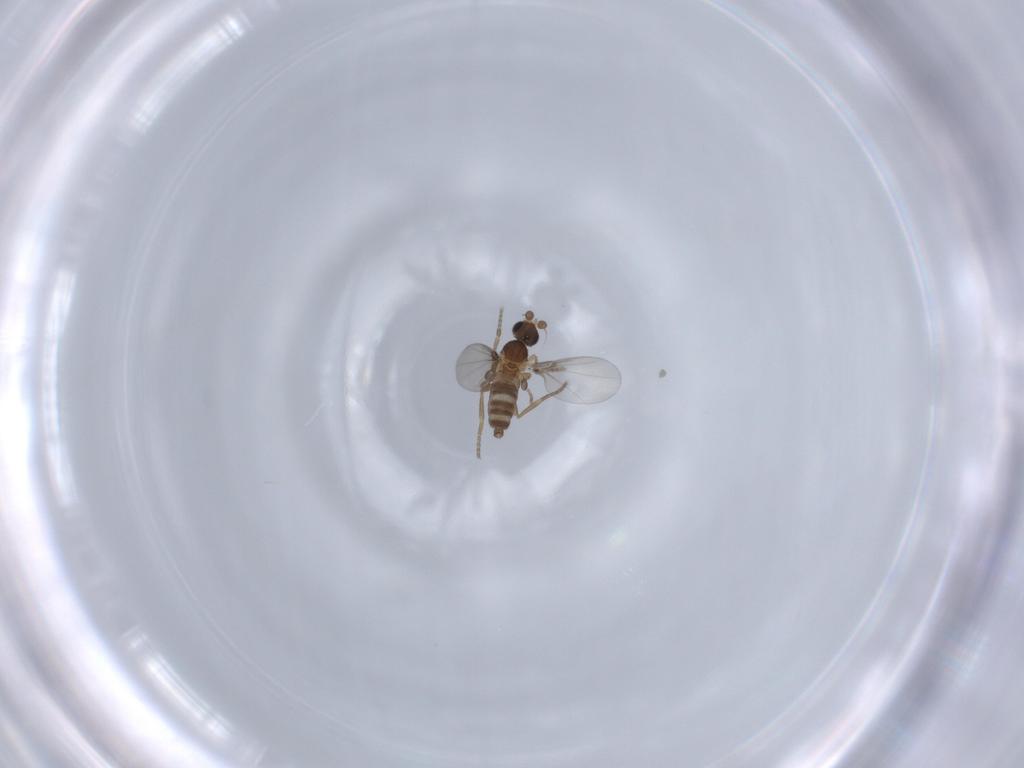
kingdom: Animalia
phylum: Arthropoda
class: Insecta
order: Diptera
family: Phoridae
